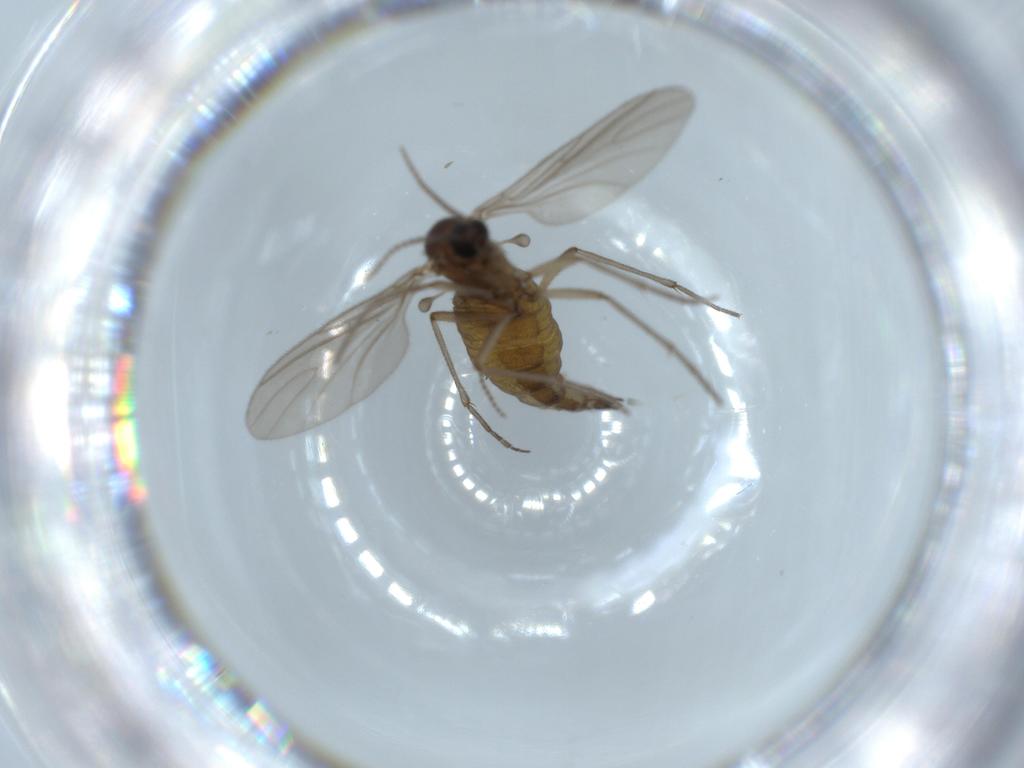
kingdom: Animalia
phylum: Arthropoda
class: Insecta
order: Diptera
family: Sciaridae
